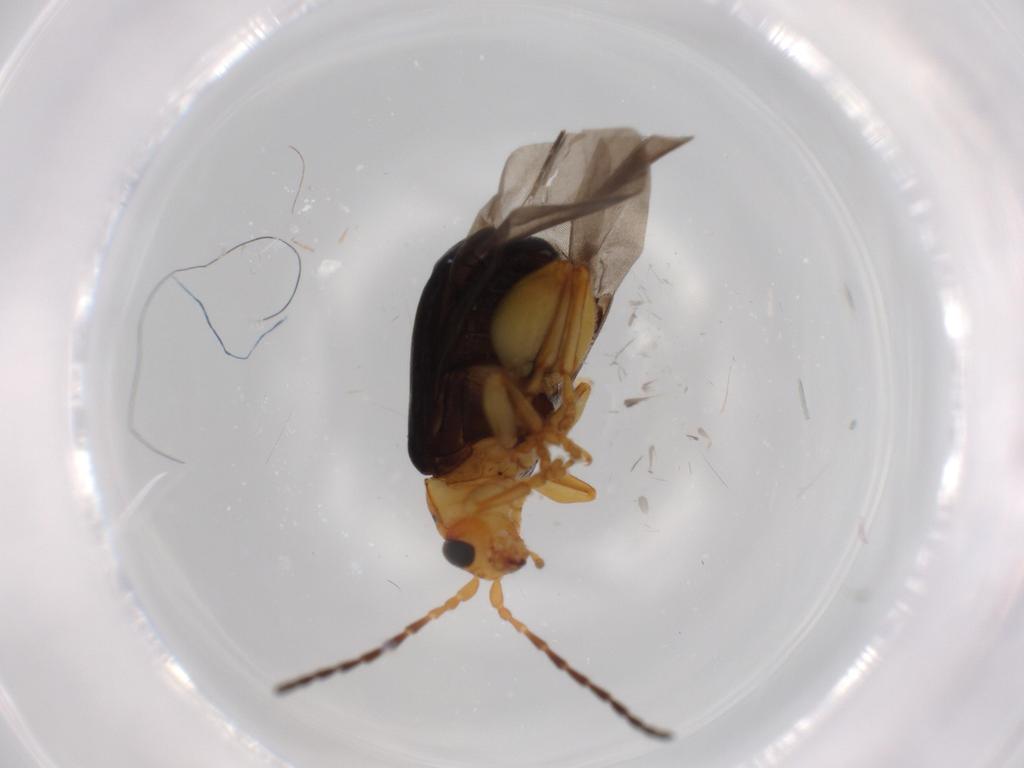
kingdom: Animalia
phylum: Arthropoda
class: Insecta
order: Coleoptera
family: Chrysomelidae
